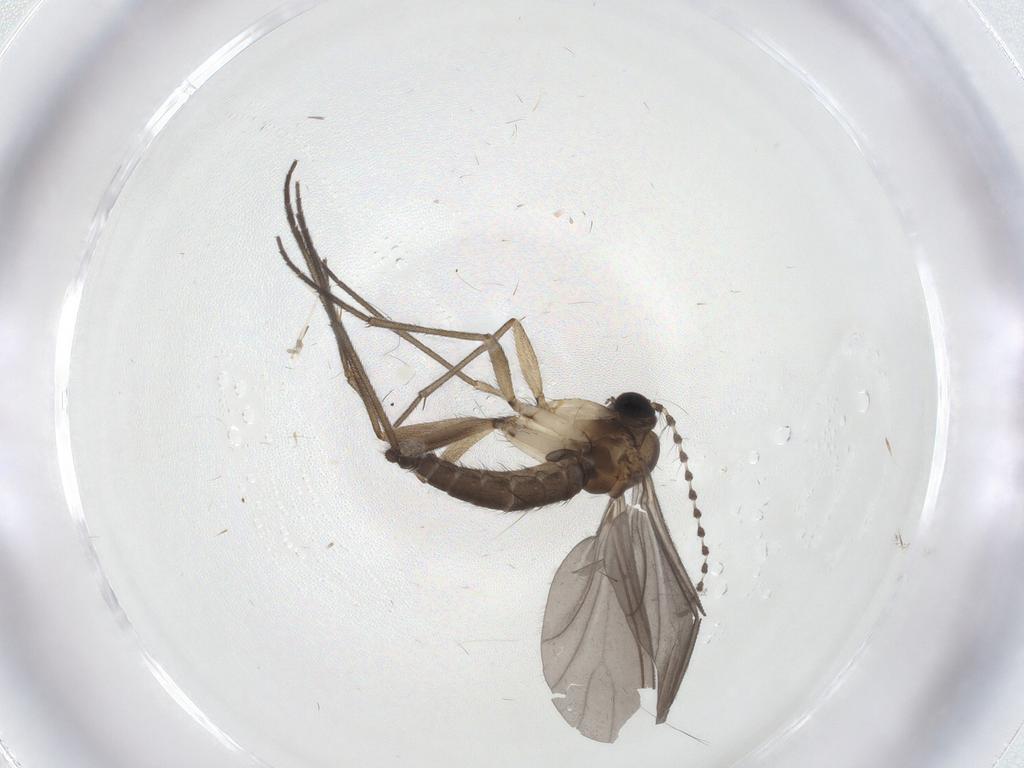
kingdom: Animalia
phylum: Arthropoda
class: Insecta
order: Diptera
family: Sciaridae
